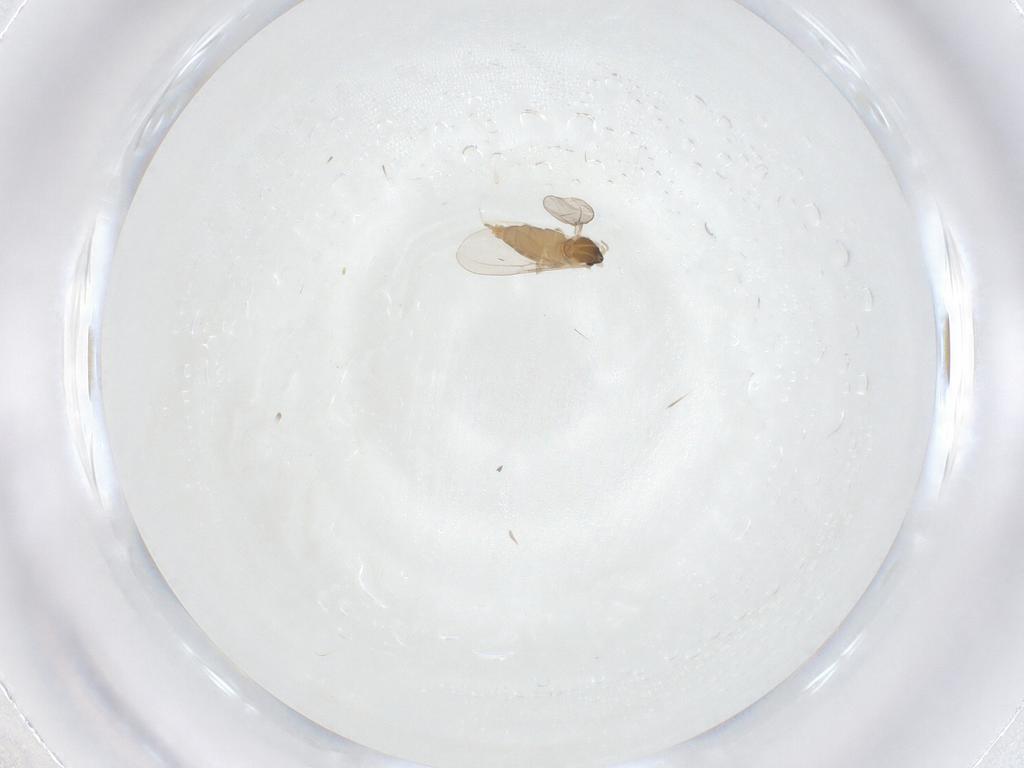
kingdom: Animalia
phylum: Arthropoda
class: Insecta
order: Diptera
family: Cecidomyiidae
